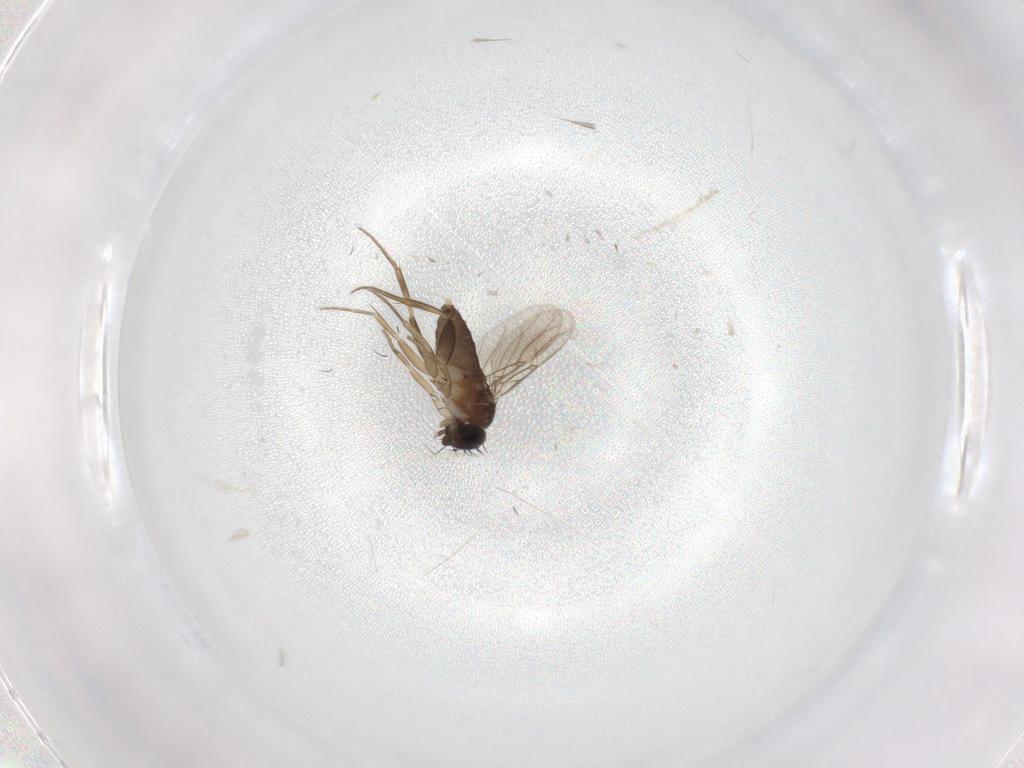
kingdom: Animalia
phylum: Arthropoda
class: Insecta
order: Diptera
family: Phoridae
